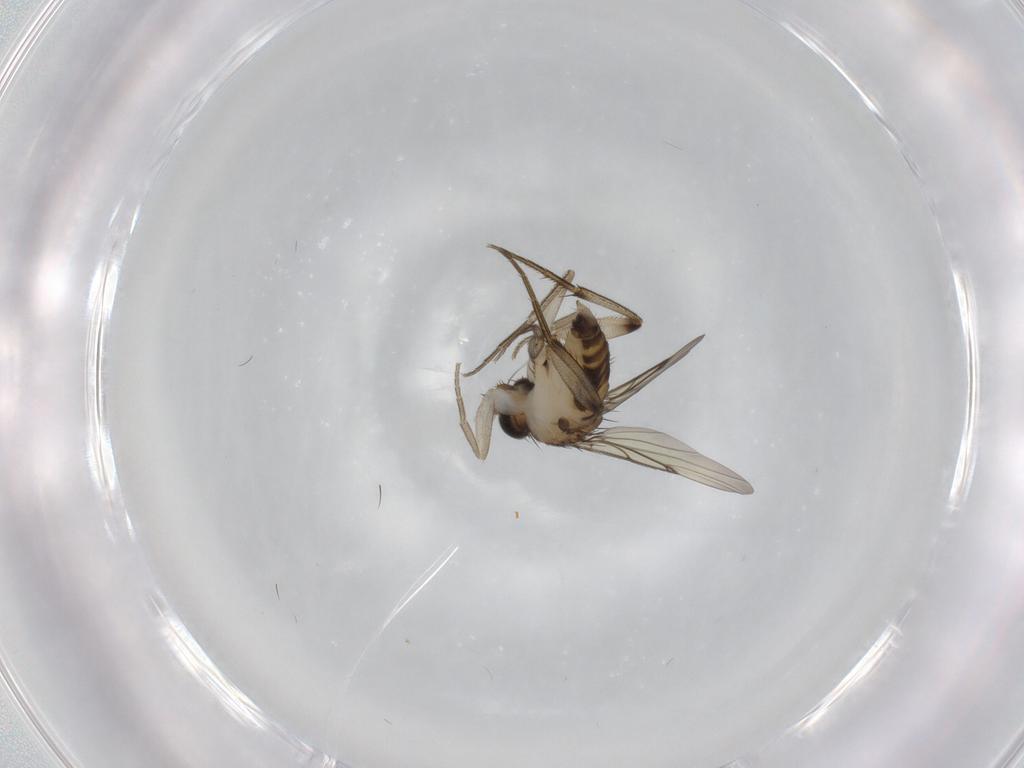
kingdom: Animalia
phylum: Arthropoda
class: Insecta
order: Diptera
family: Phoridae
